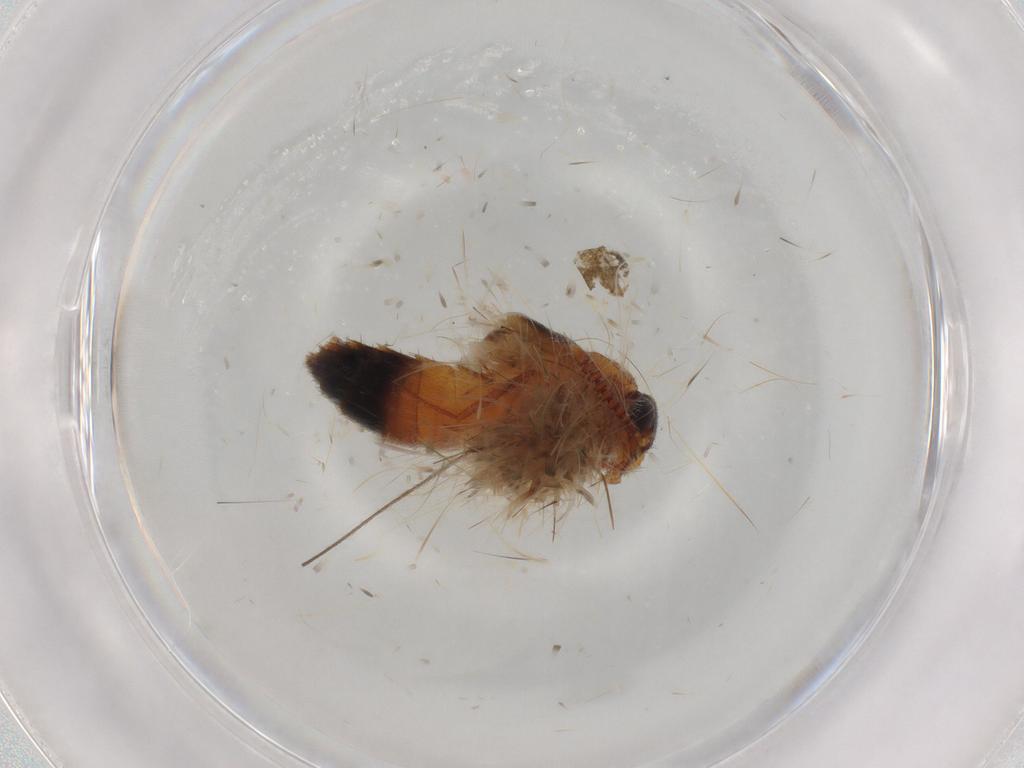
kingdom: Animalia
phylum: Arthropoda
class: Insecta
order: Coleoptera
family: Staphylinidae
